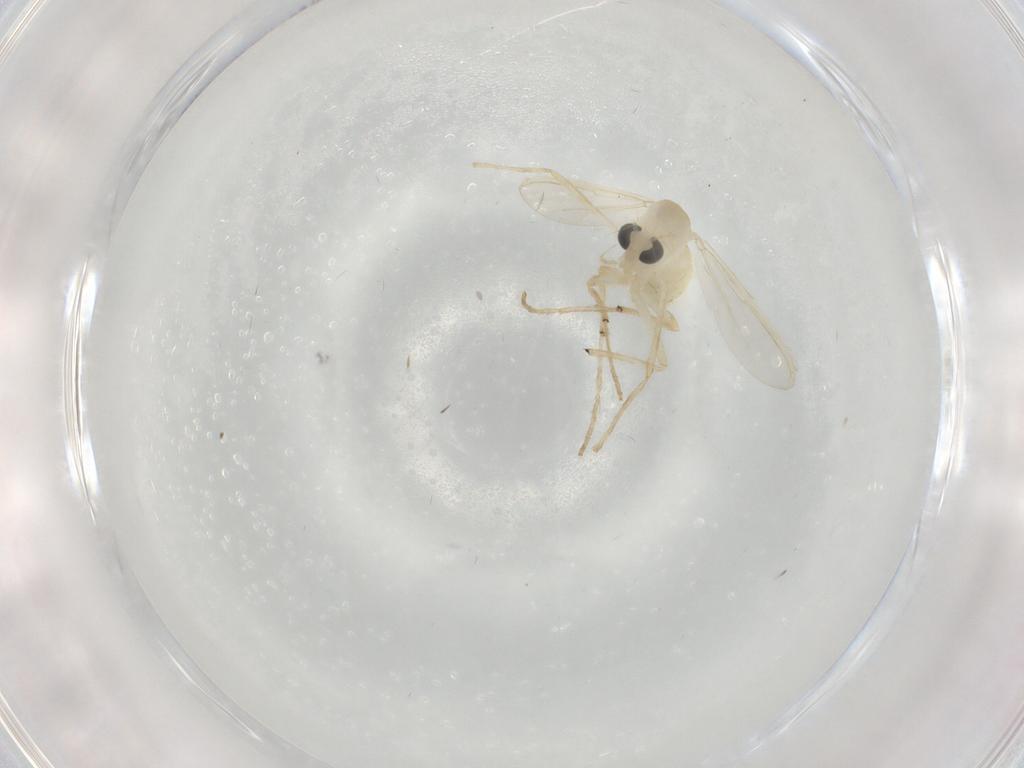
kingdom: Animalia
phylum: Arthropoda
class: Insecta
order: Diptera
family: Chironomidae
